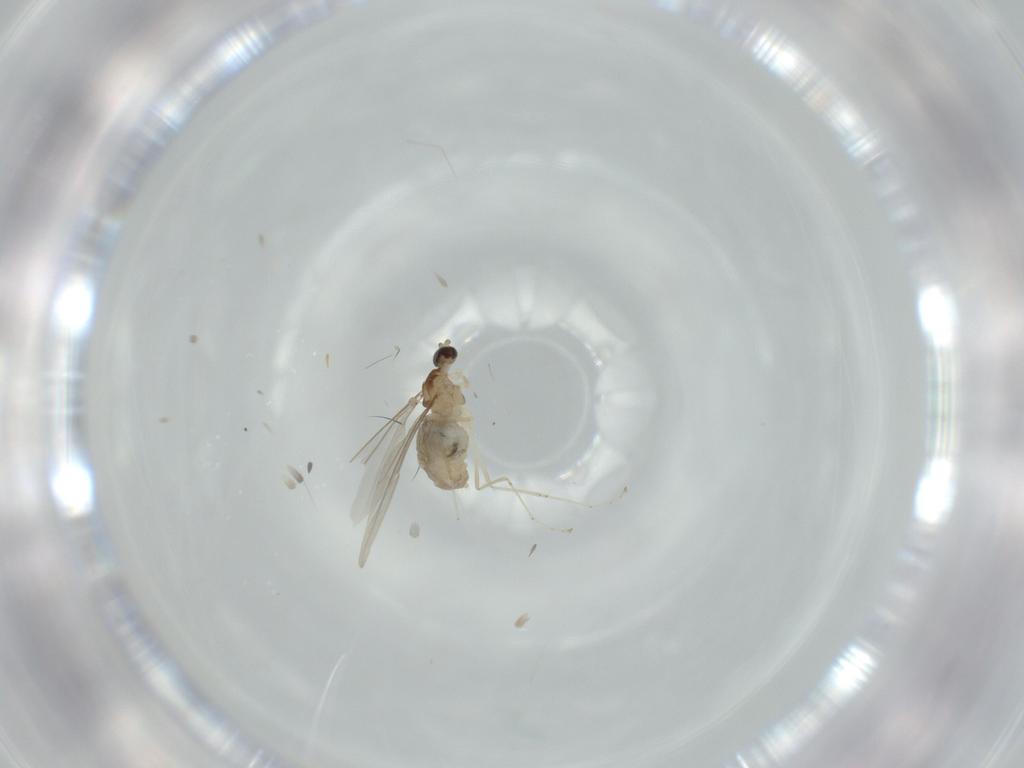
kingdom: Animalia
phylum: Arthropoda
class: Insecta
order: Diptera
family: Cecidomyiidae
